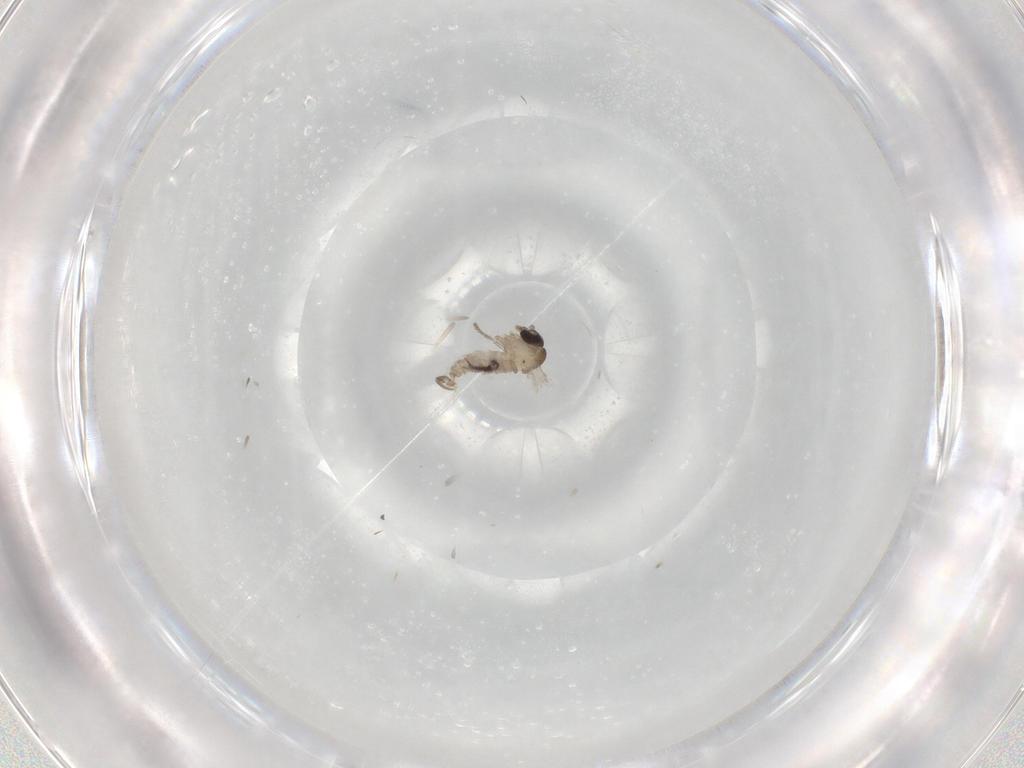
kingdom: Animalia
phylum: Arthropoda
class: Insecta
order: Diptera
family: Psychodidae
